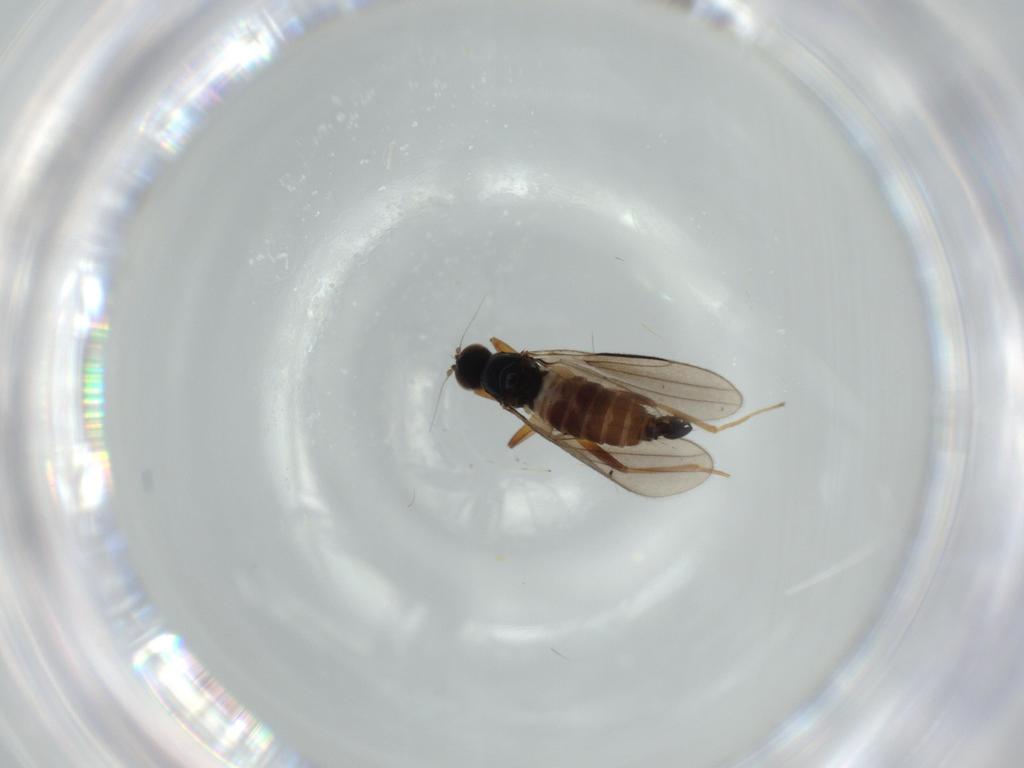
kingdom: Animalia
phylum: Arthropoda
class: Insecta
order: Diptera
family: Hybotidae
